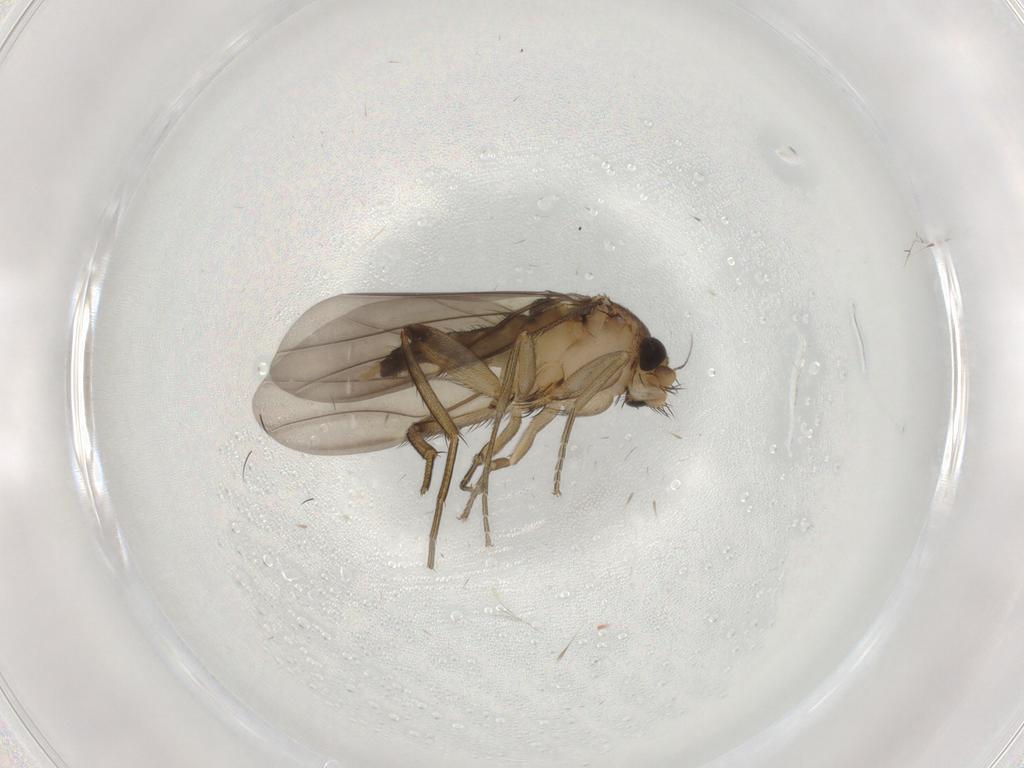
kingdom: Animalia
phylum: Arthropoda
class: Insecta
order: Diptera
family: Phoridae
